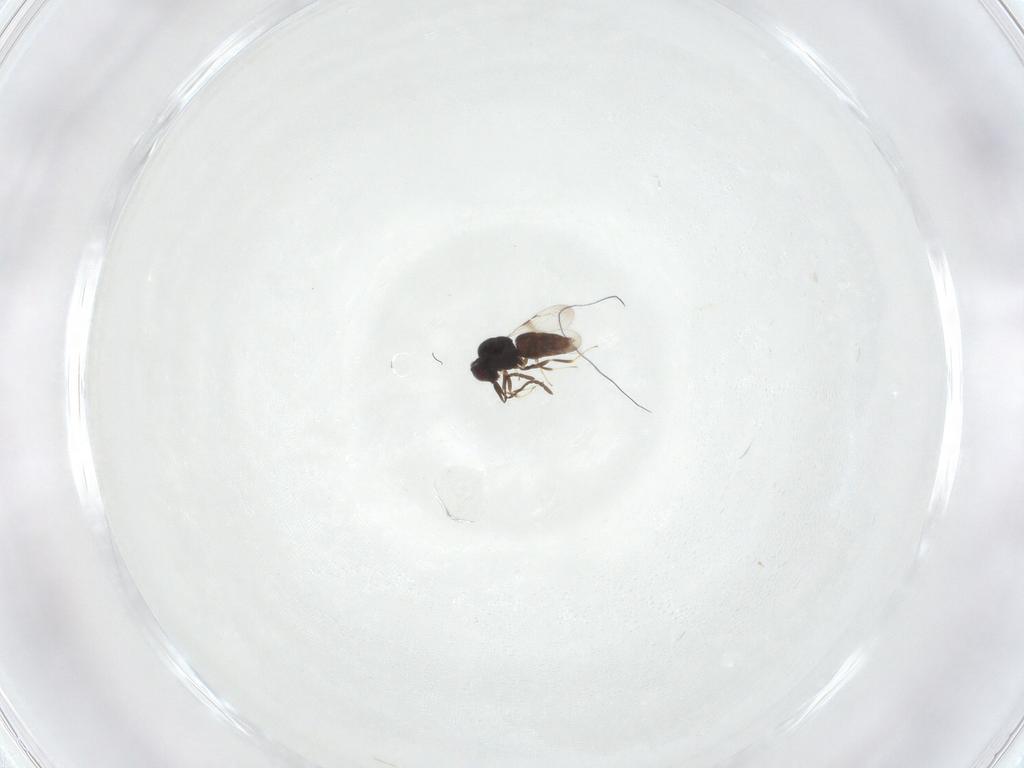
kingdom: Animalia
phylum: Arthropoda
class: Insecta
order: Hymenoptera
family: Ceraphronidae
